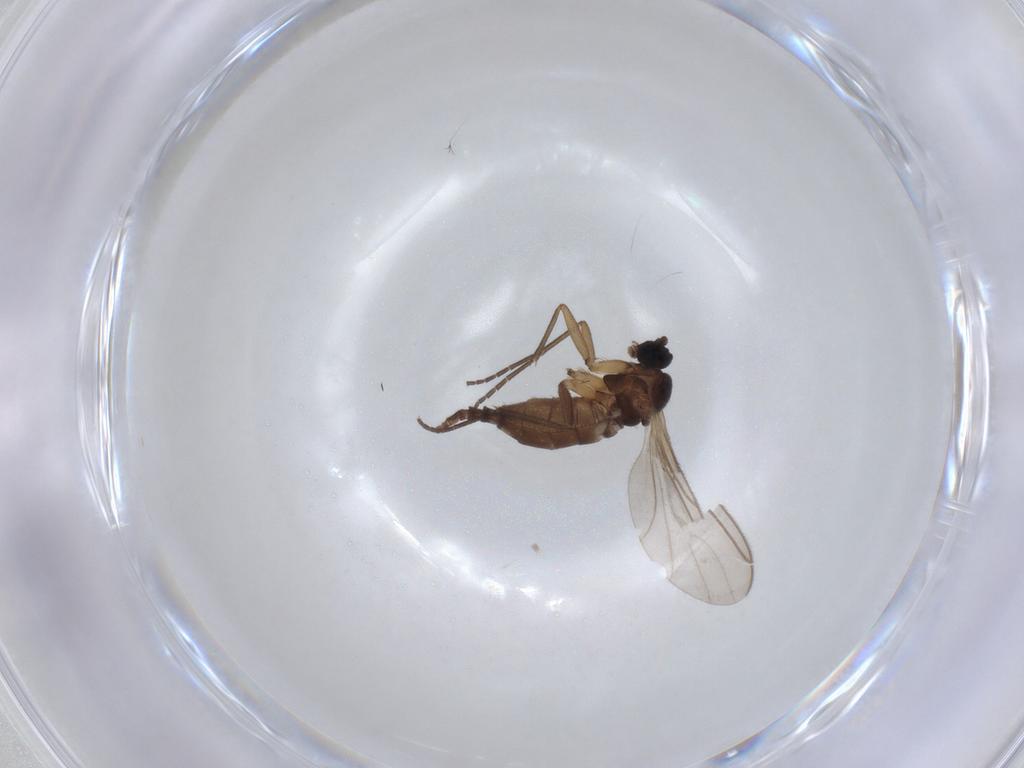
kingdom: Animalia
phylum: Arthropoda
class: Insecta
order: Diptera
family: Sciaridae
